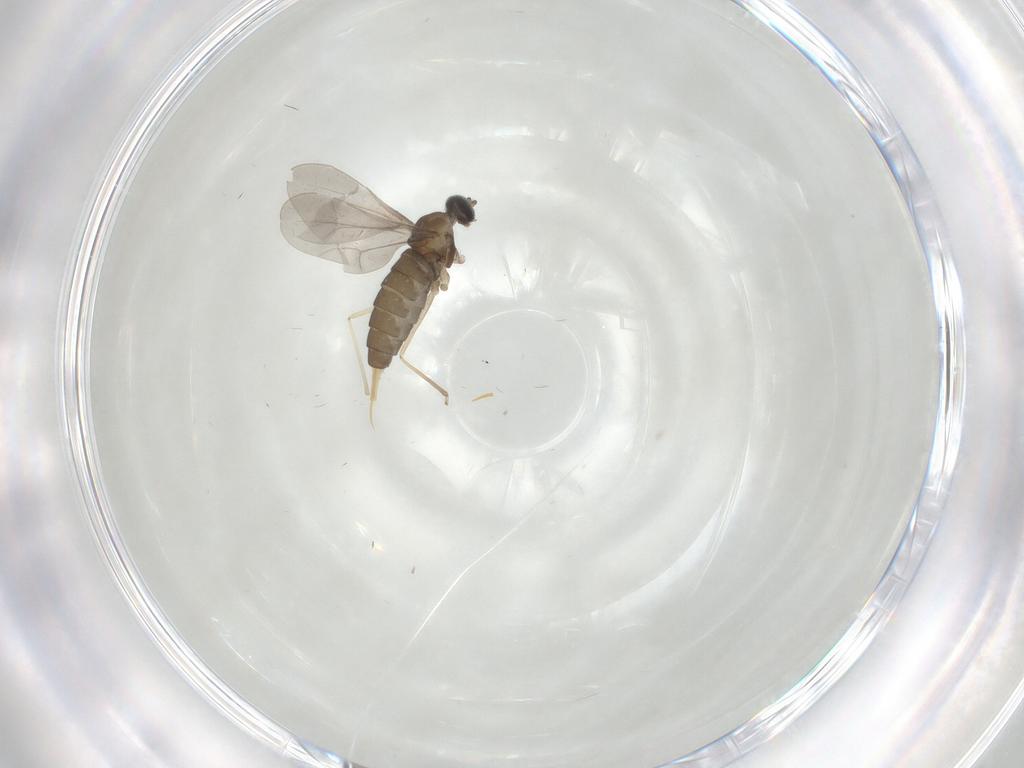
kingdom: Animalia
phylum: Arthropoda
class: Insecta
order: Diptera
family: Cecidomyiidae
